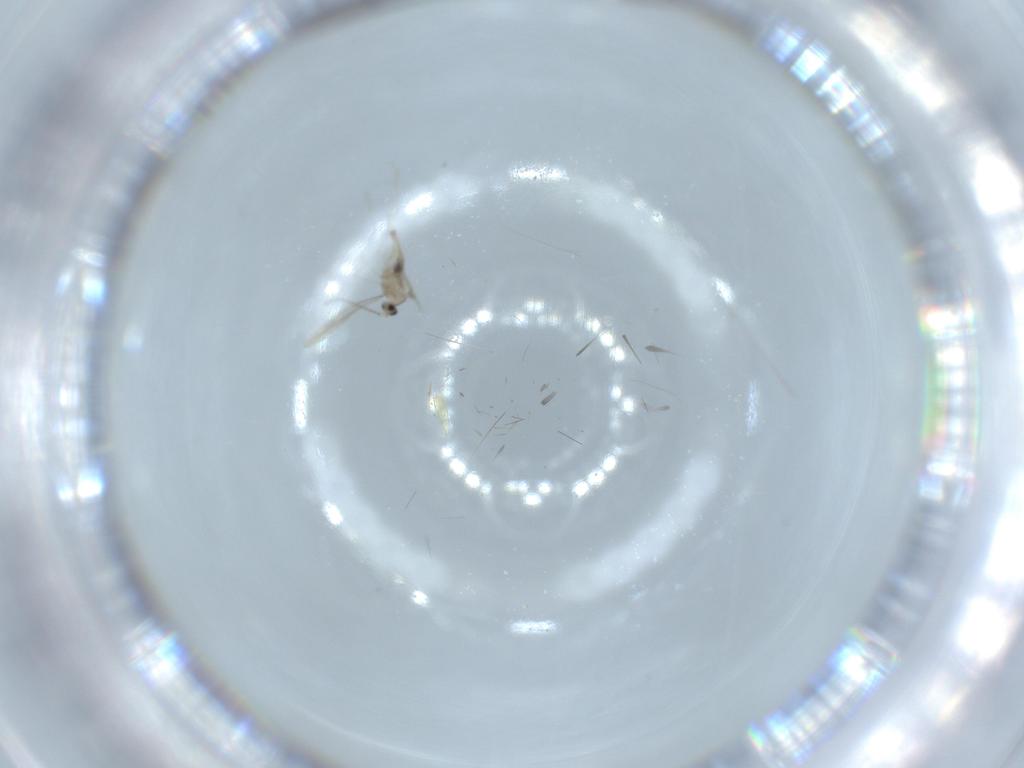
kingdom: Animalia
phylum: Arthropoda
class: Insecta
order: Diptera
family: Cecidomyiidae
